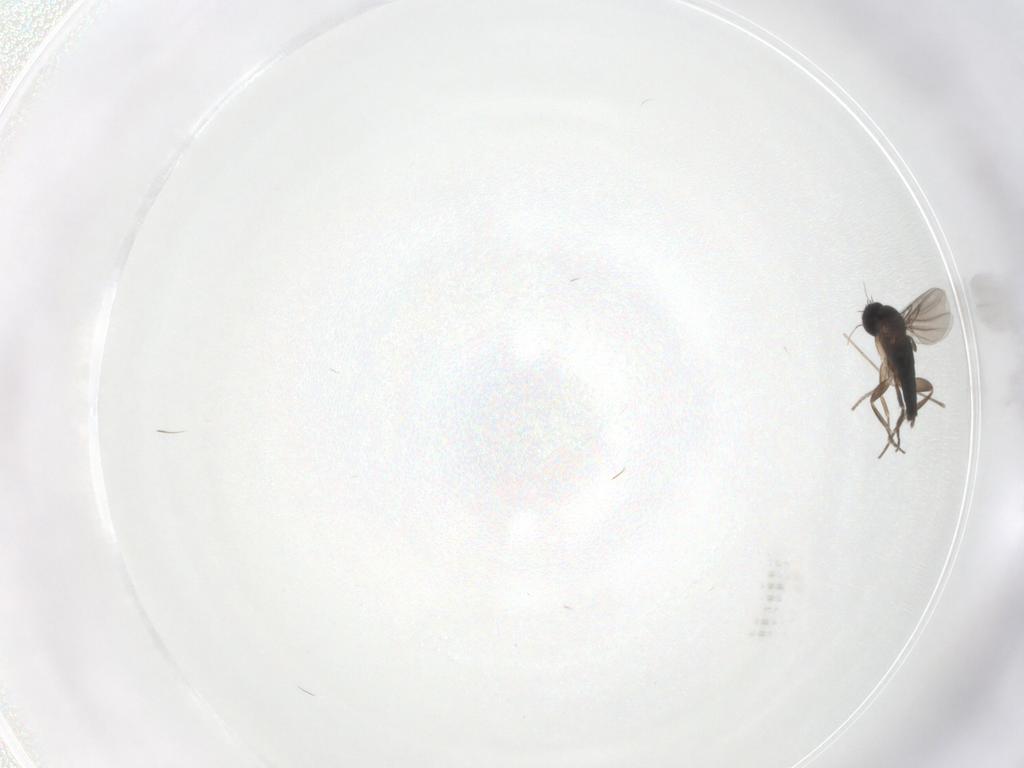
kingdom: Animalia
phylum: Arthropoda
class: Insecta
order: Diptera
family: Phoridae
